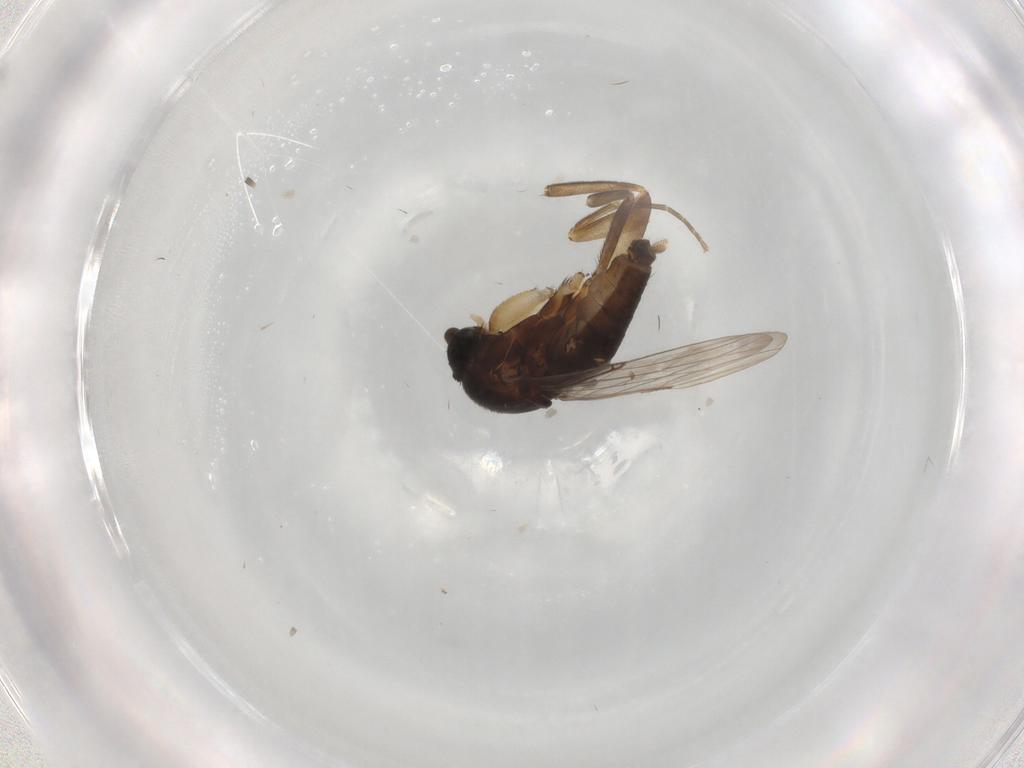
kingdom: Animalia
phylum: Arthropoda
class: Insecta
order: Diptera
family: Phoridae
